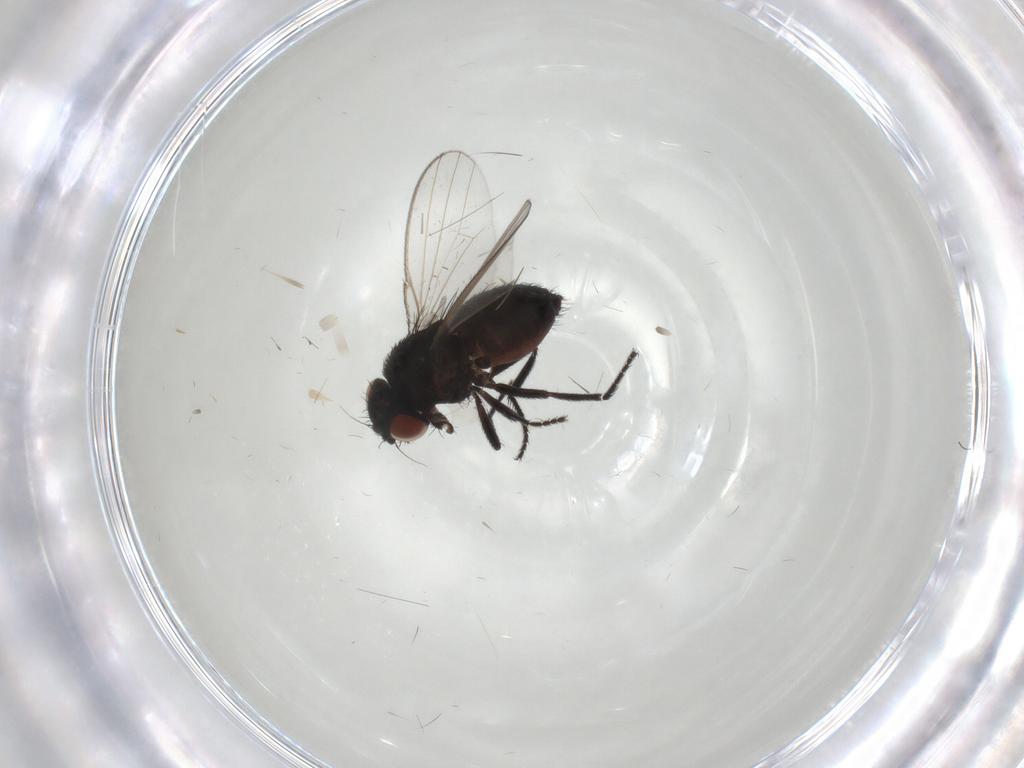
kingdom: Animalia
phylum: Arthropoda
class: Insecta
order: Diptera
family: Milichiidae
